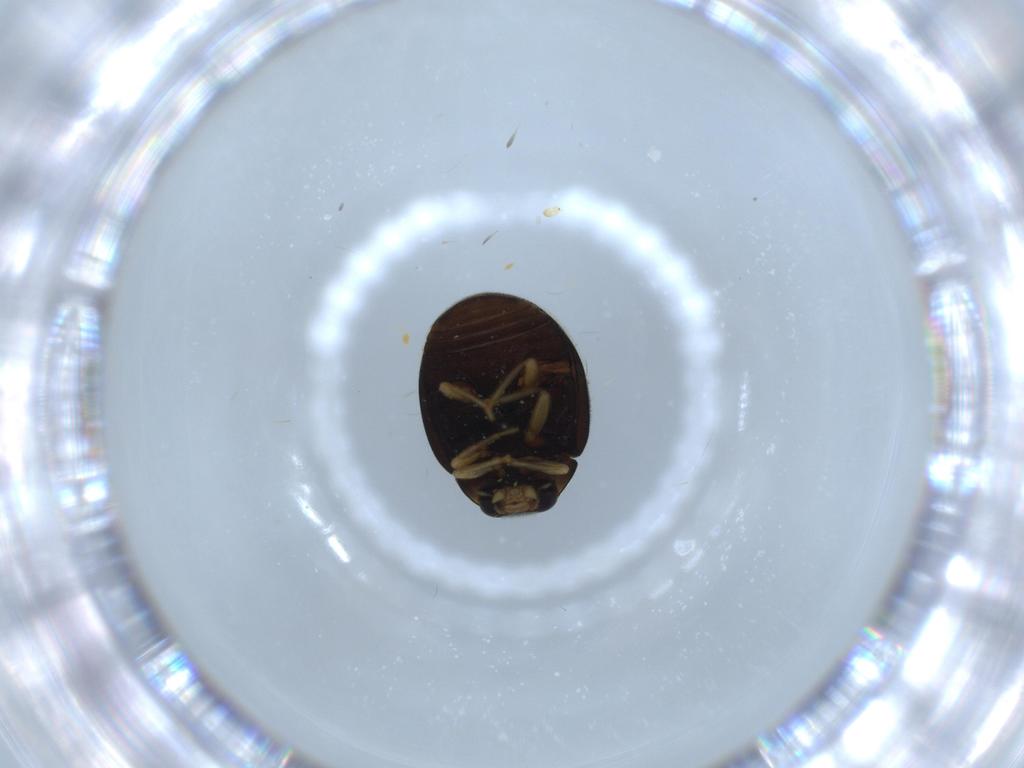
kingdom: Animalia
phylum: Arthropoda
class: Insecta
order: Coleoptera
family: Coccinellidae
